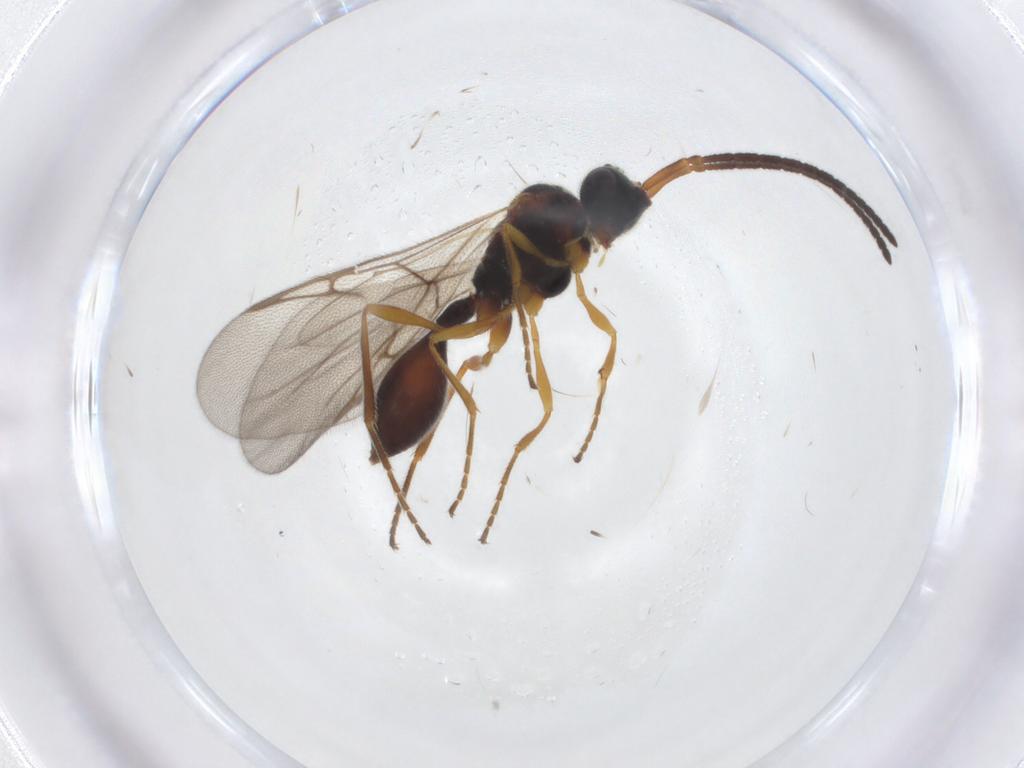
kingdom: Animalia
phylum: Arthropoda
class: Insecta
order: Hymenoptera
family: Diapriidae
